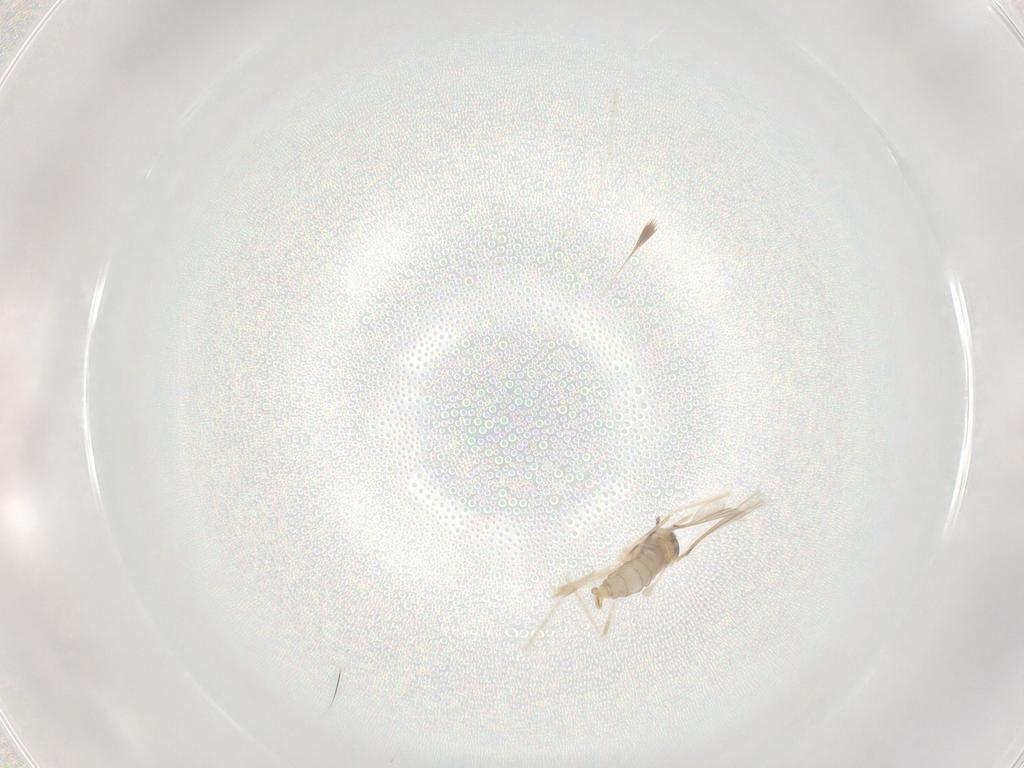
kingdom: Animalia
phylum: Arthropoda
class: Insecta
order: Diptera
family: Cecidomyiidae
